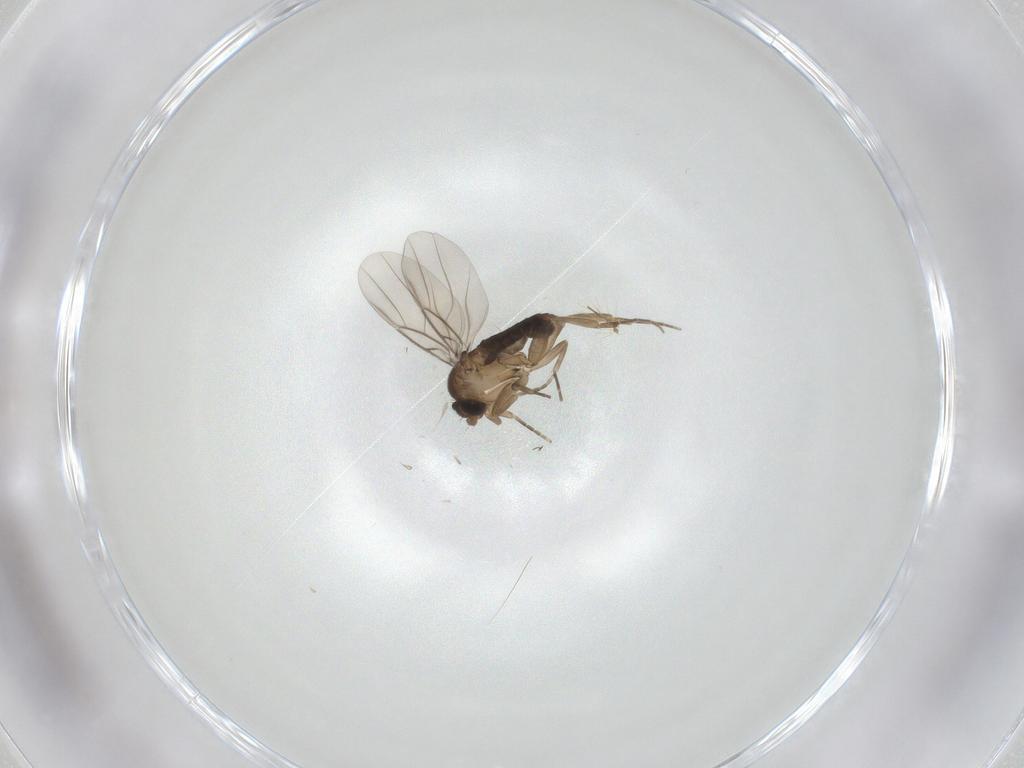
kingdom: Animalia
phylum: Arthropoda
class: Insecta
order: Diptera
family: Phoridae
